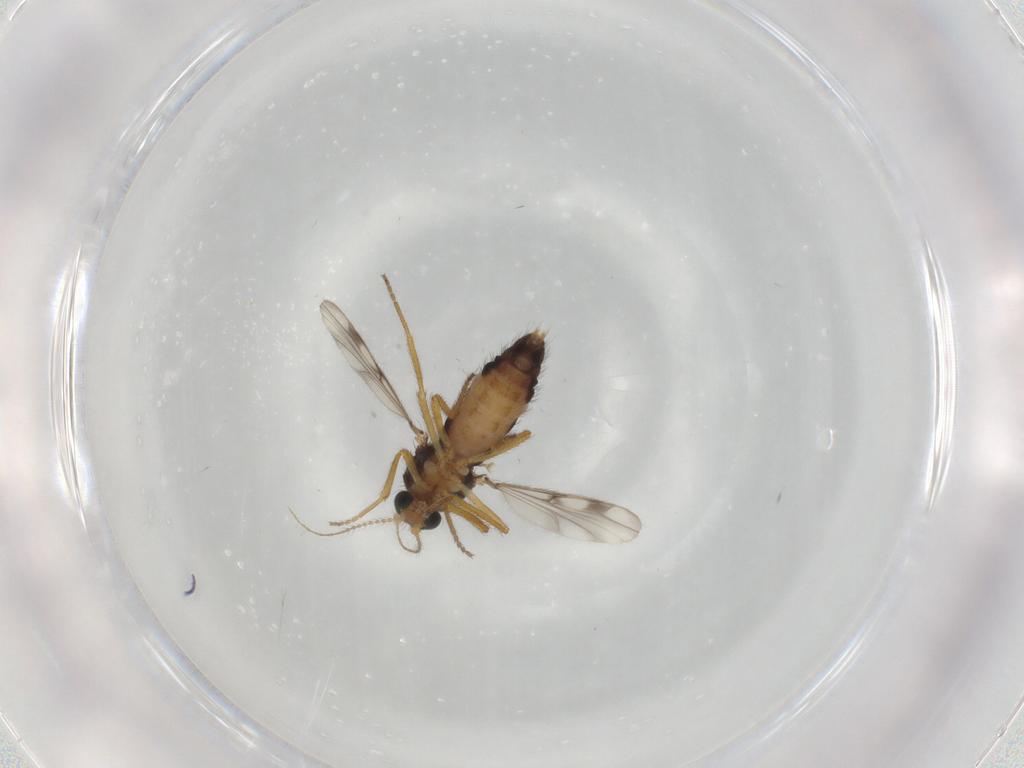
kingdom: Animalia
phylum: Arthropoda
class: Insecta
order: Diptera
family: Ceratopogonidae
